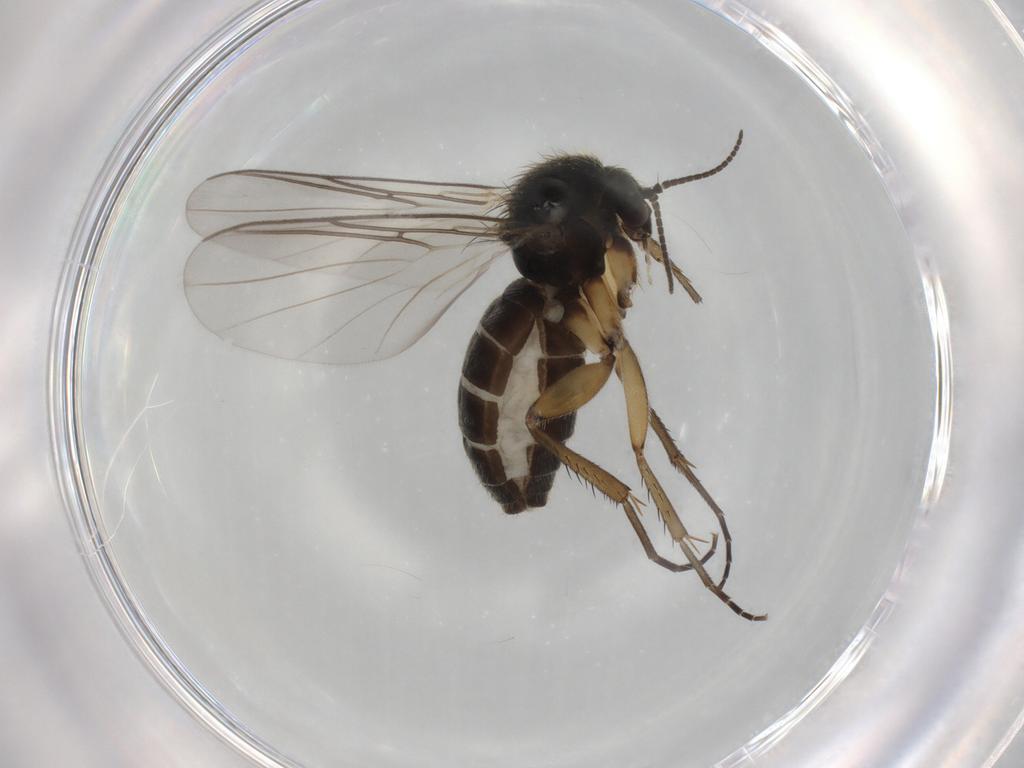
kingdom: Animalia
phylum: Arthropoda
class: Insecta
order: Diptera
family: Mycetophilidae
